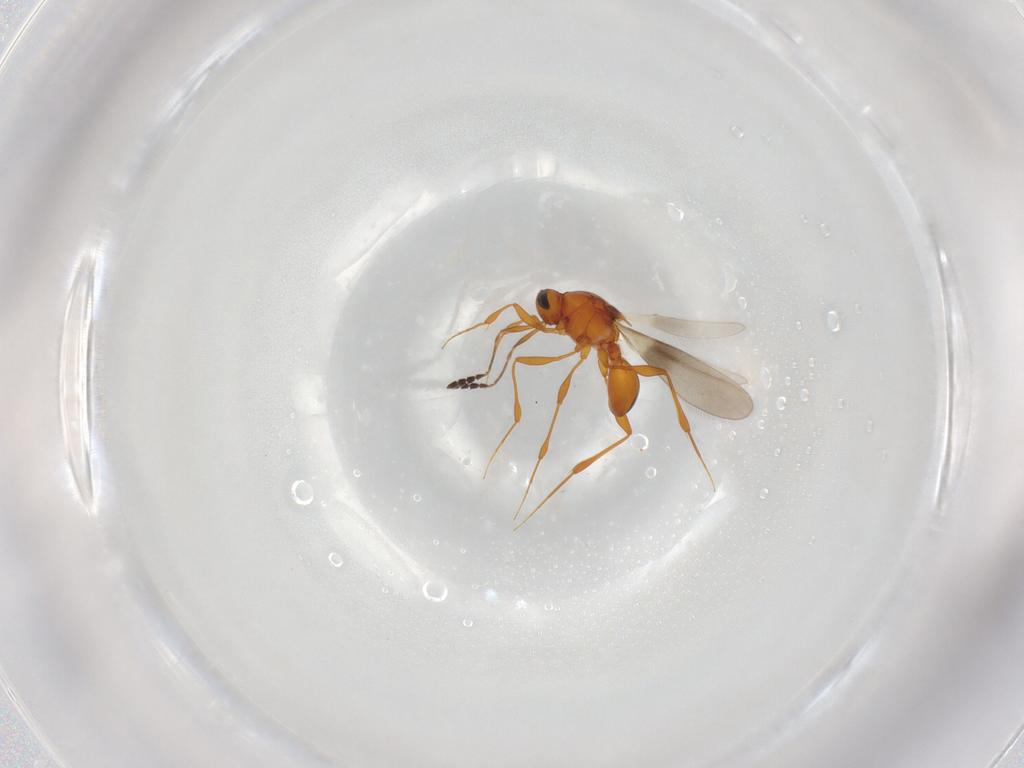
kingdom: Animalia
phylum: Arthropoda
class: Insecta
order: Hymenoptera
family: Platygastridae
